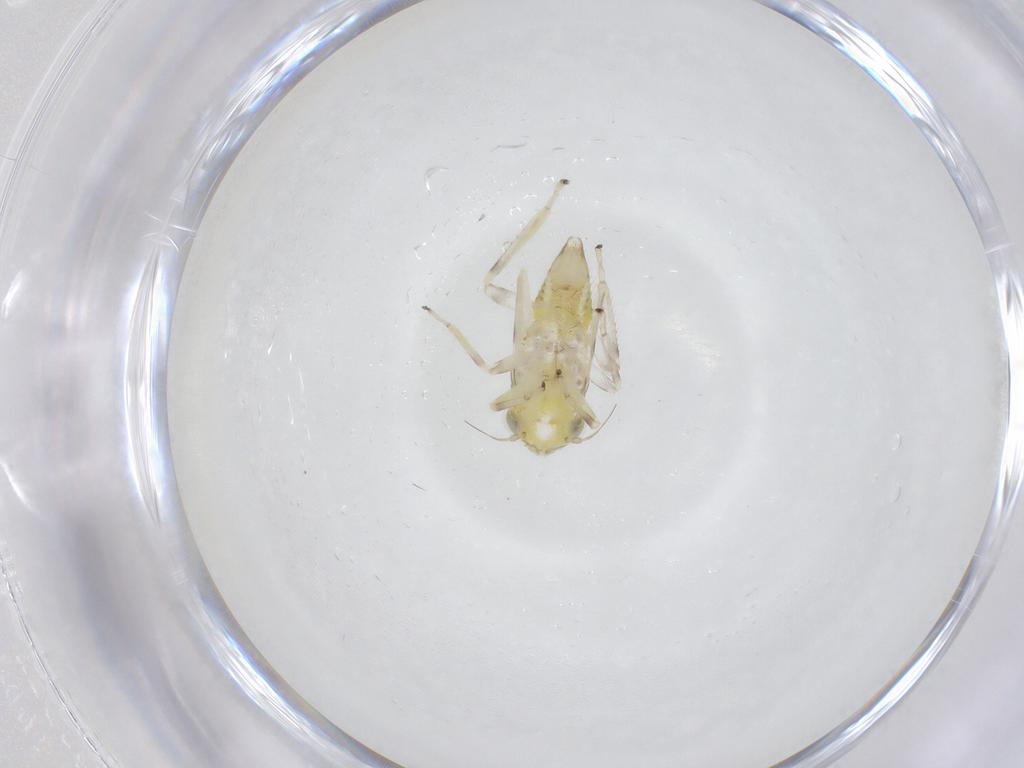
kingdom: Animalia
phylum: Arthropoda
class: Insecta
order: Hemiptera
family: Cicadellidae
